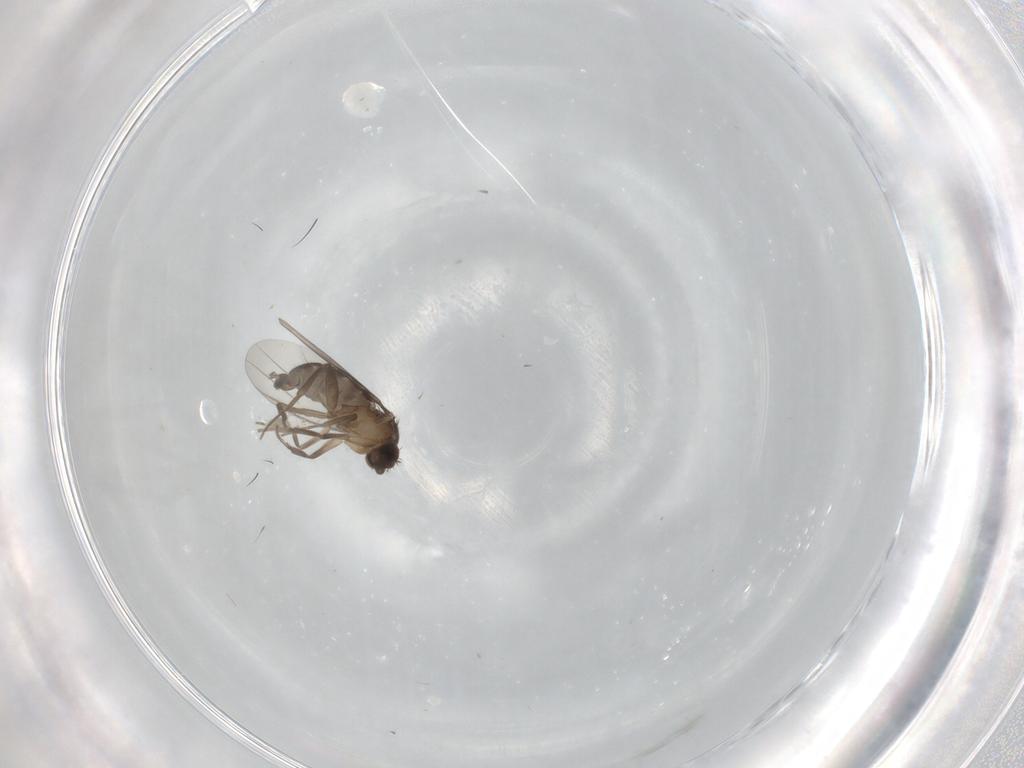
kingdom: Animalia
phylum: Arthropoda
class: Insecta
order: Diptera
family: Phoridae
